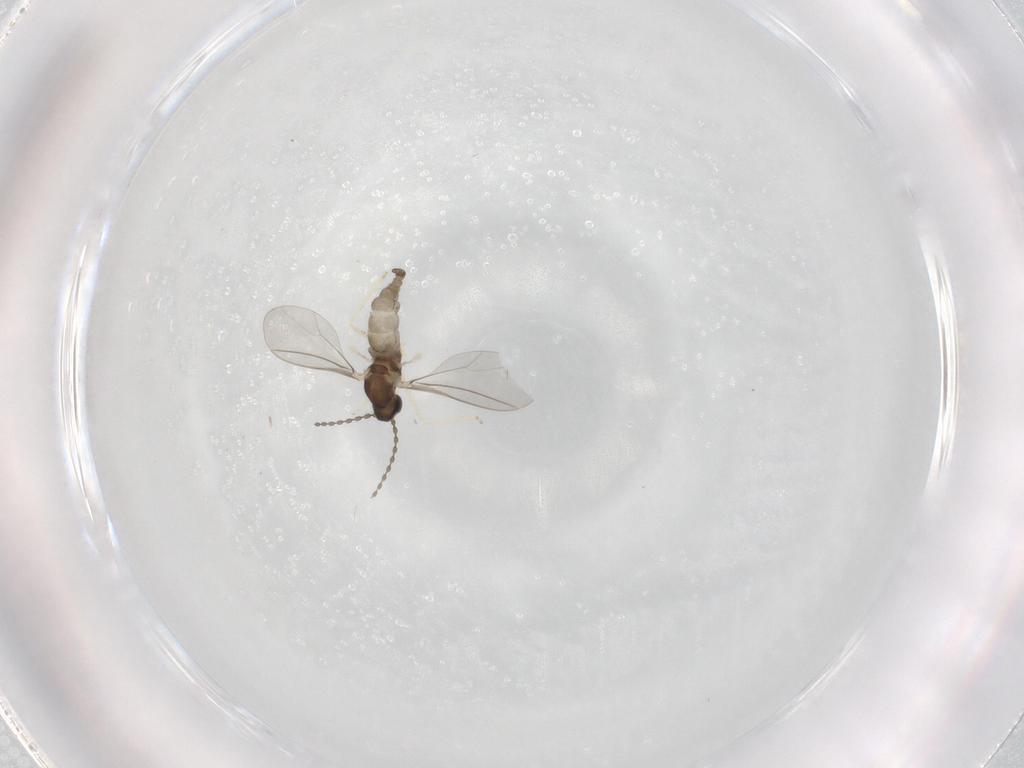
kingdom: Animalia
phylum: Arthropoda
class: Insecta
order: Diptera
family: Cecidomyiidae
